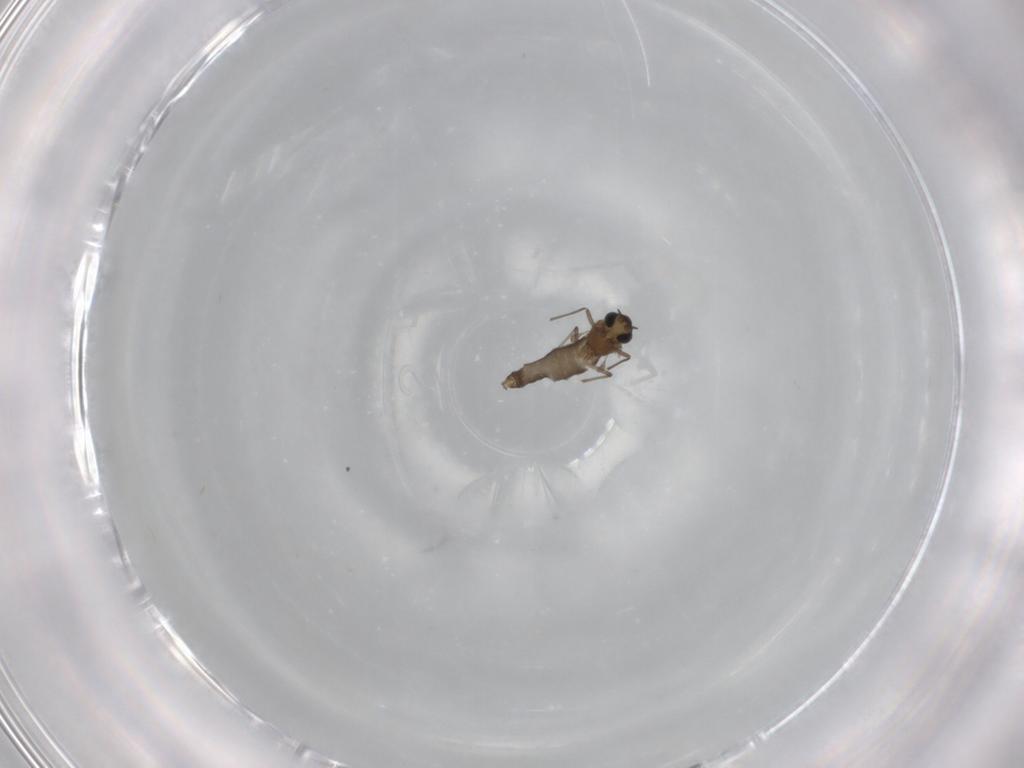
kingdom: Animalia
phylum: Arthropoda
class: Insecta
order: Diptera
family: Chironomidae
